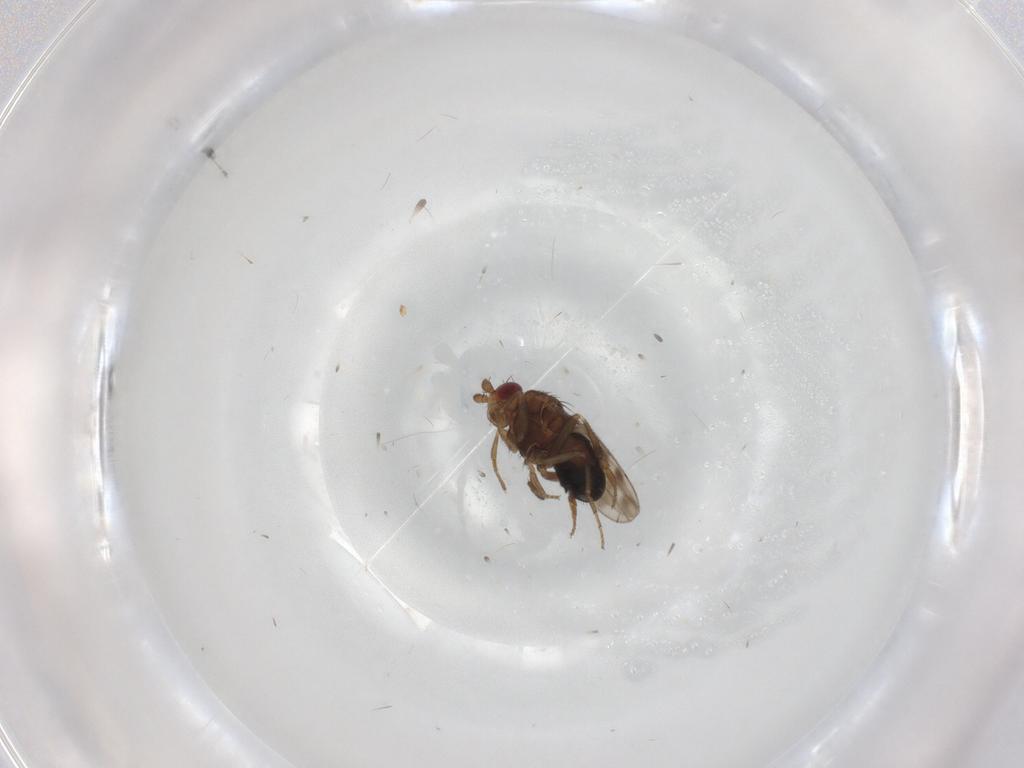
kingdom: Animalia
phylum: Arthropoda
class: Insecta
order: Diptera
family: Sphaeroceridae
